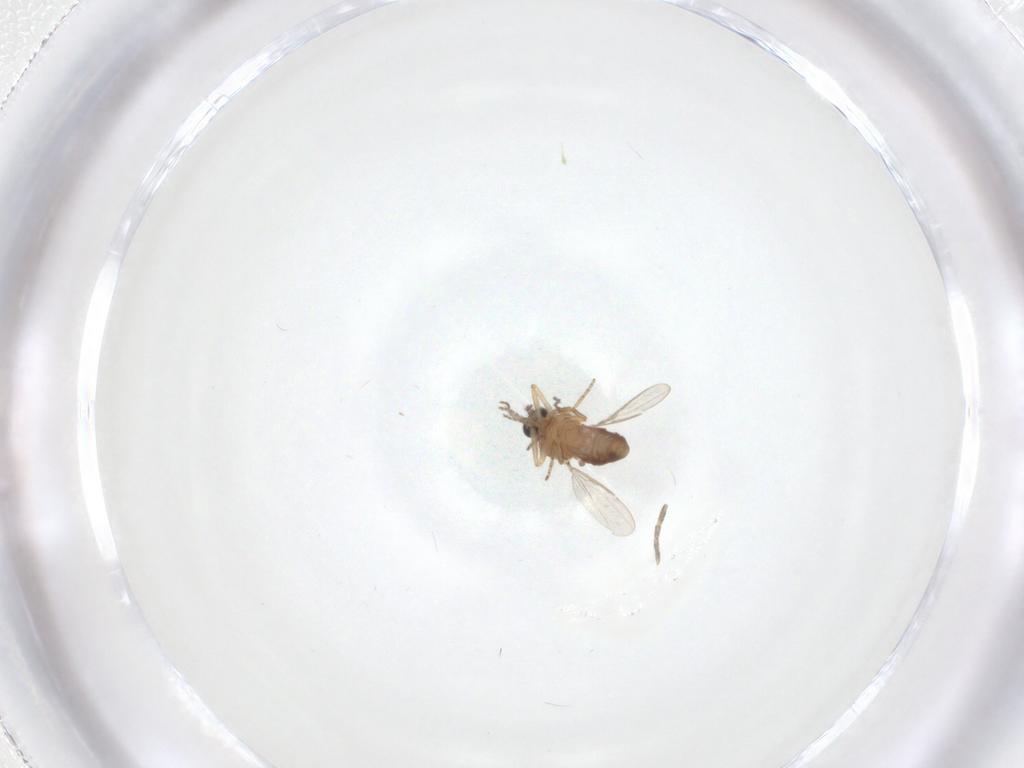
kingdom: Animalia
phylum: Arthropoda
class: Insecta
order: Diptera
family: Ceratopogonidae
